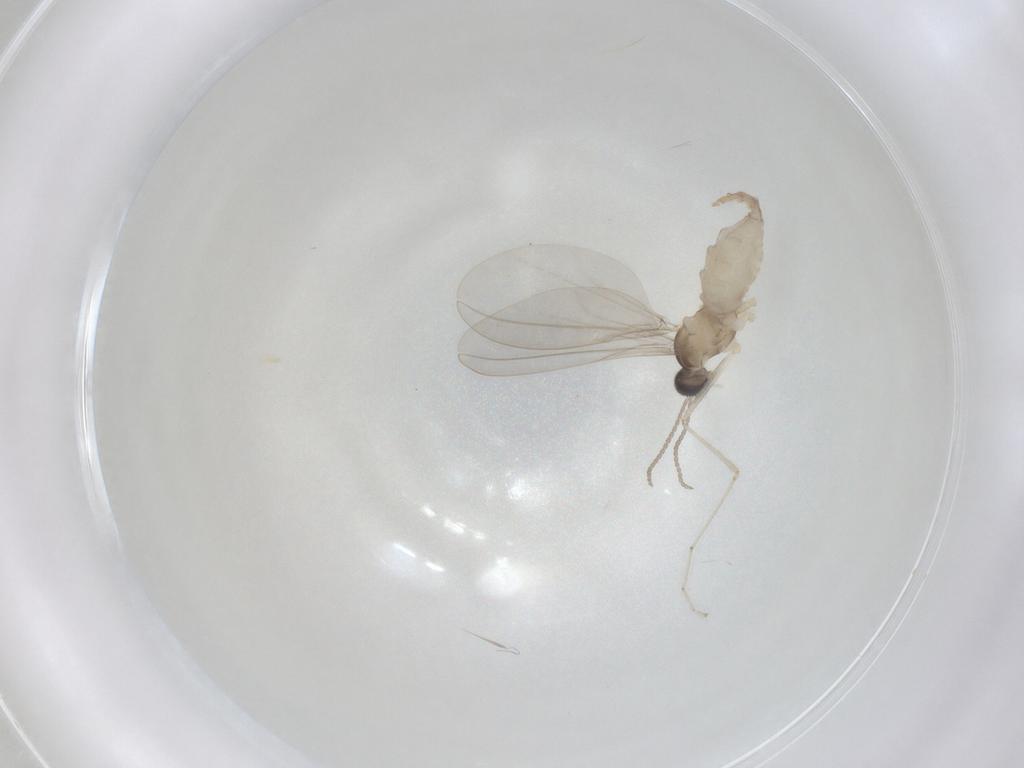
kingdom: Animalia
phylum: Arthropoda
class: Insecta
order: Diptera
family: Cecidomyiidae
